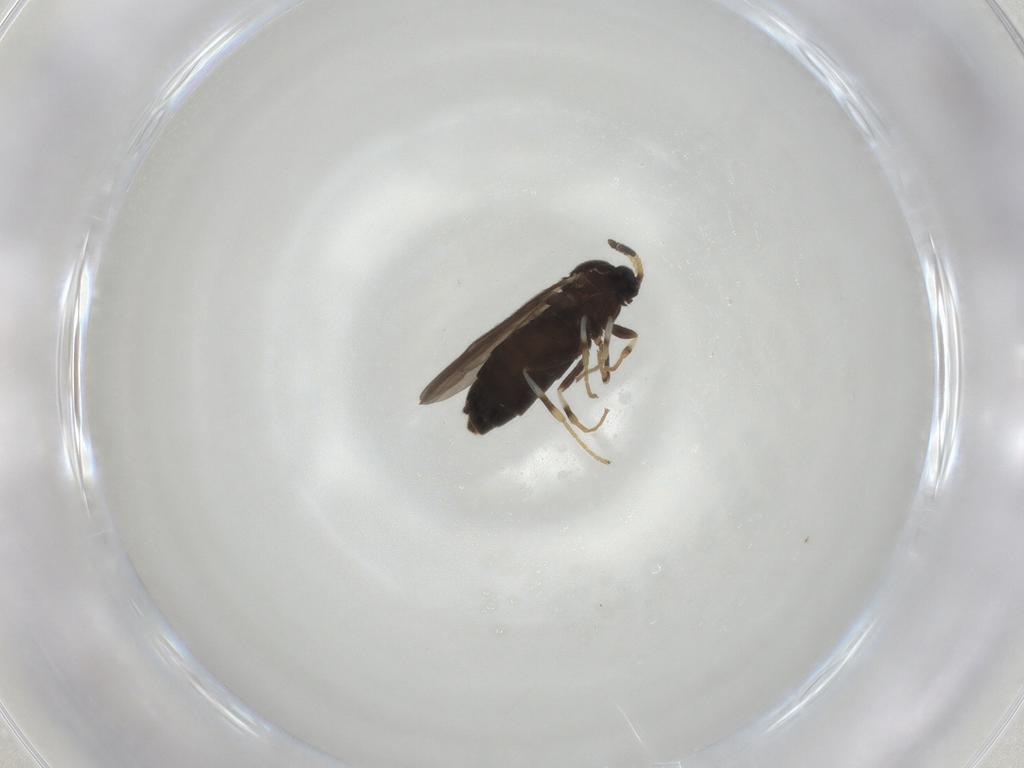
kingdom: Animalia
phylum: Arthropoda
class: Insecta
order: Diptera
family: Scatopsidae
